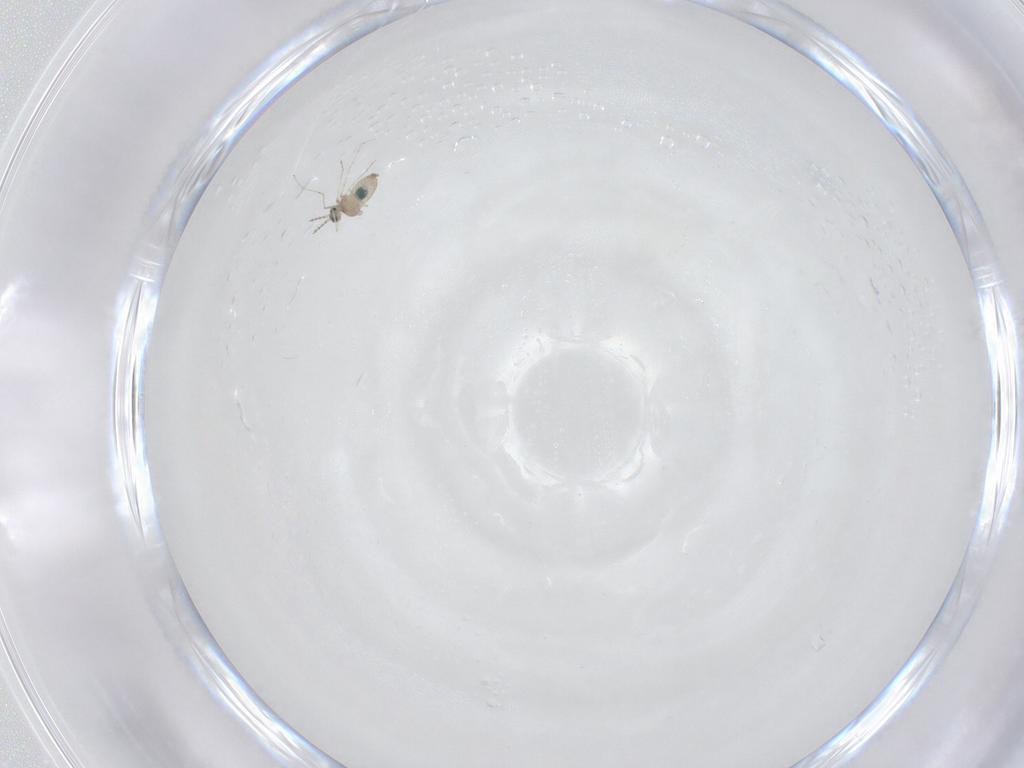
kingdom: Animalia
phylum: Arthropoda
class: Insecta
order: Diptera
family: Ceratopogonidae
